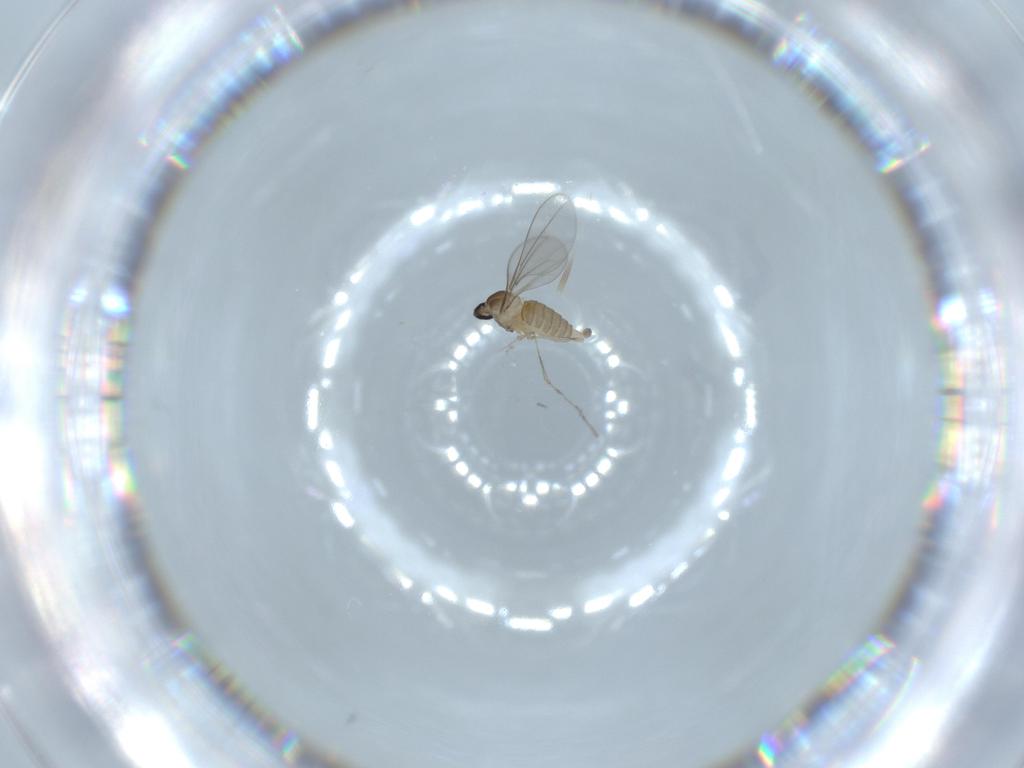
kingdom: Animalia
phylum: Arthropoda
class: Insecta
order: Diptera
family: Cecidomyiidae
